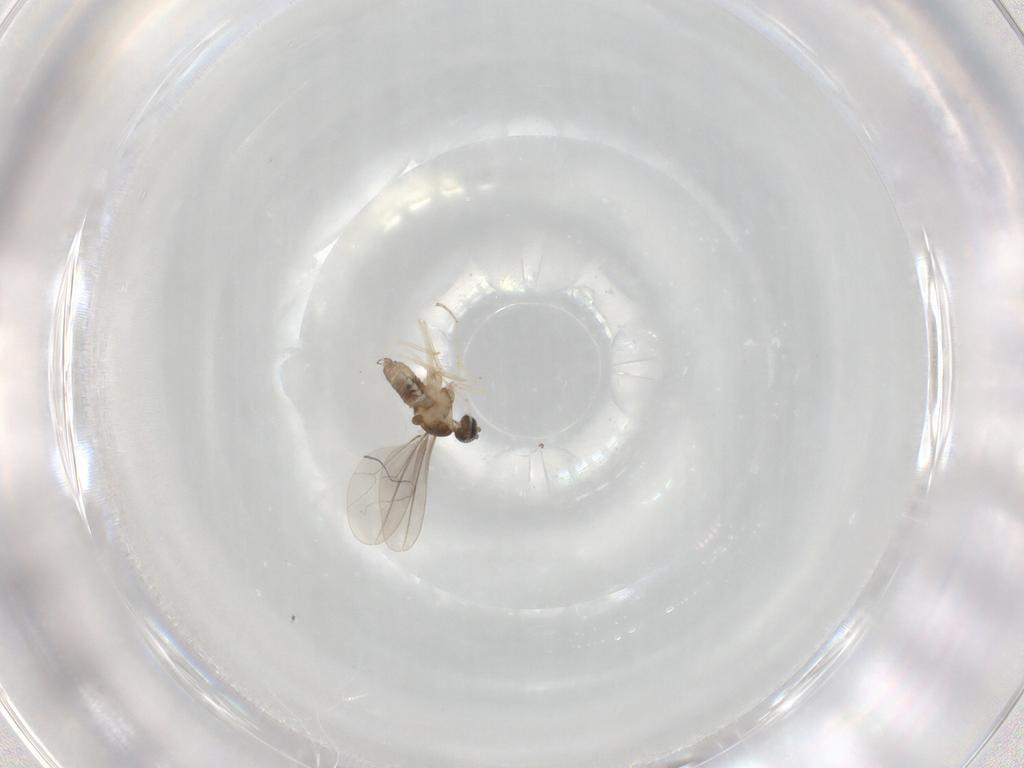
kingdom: Animalia
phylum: Arthropoda
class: Insecta
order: Diptera
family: Cecidomyiidae
